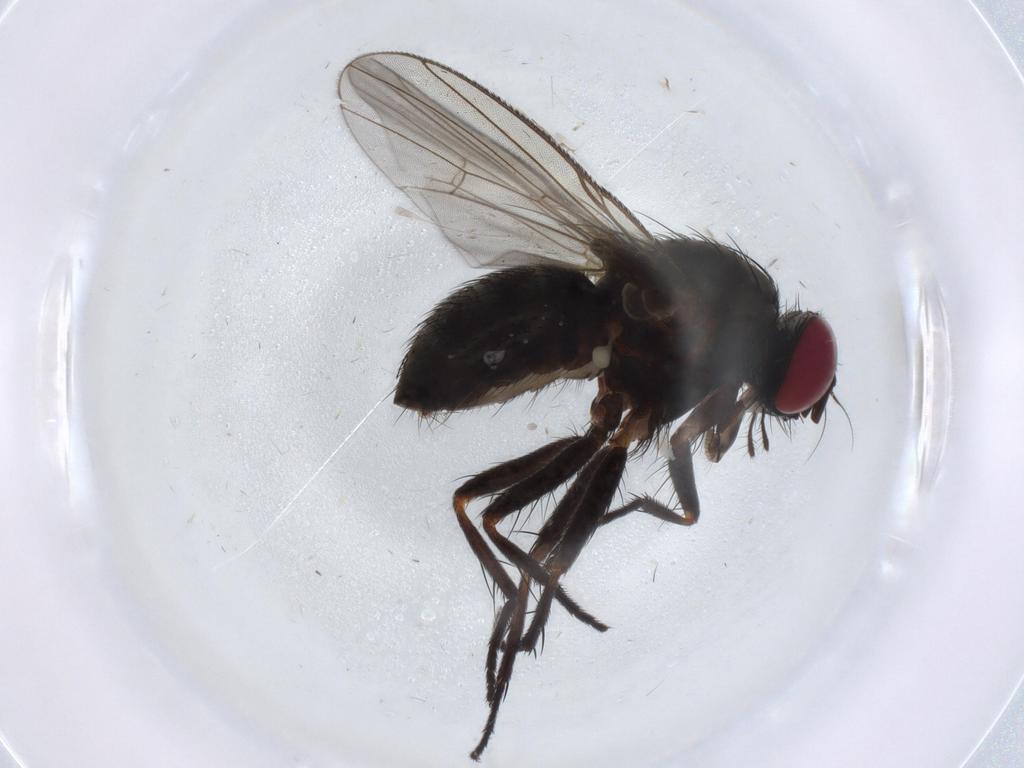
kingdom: Animalia
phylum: Arthropoda
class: Insecta
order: Diptera
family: Muscidae
